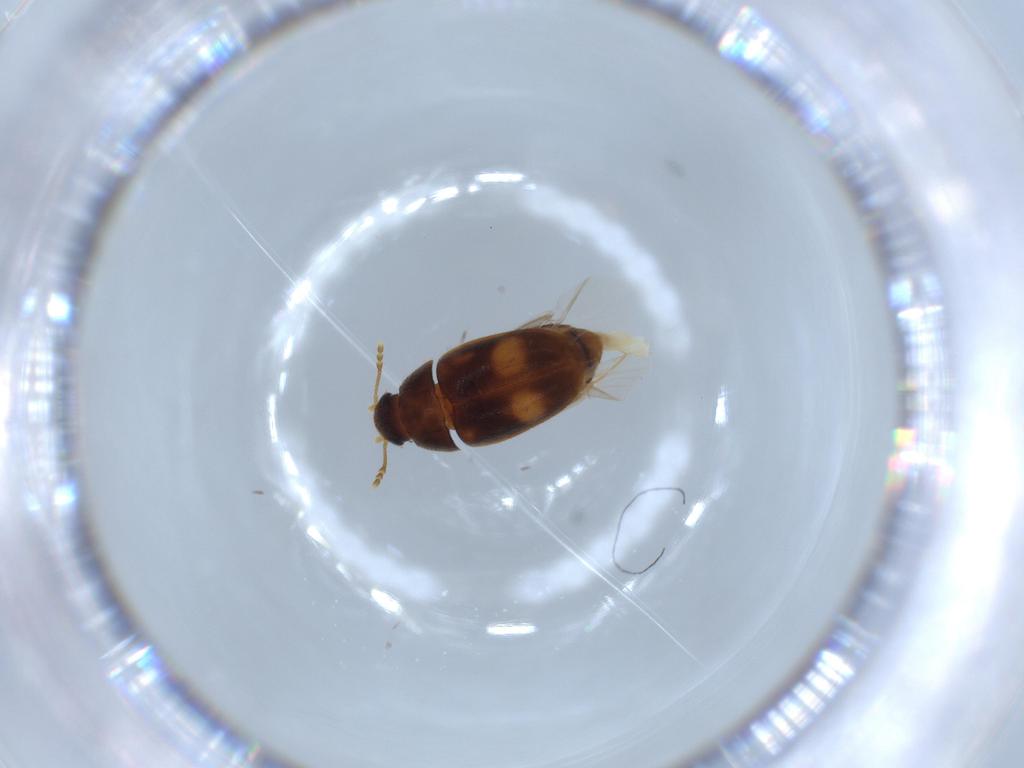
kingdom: Animalia
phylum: Arthropoda
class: Insecta
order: Coleoptera
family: Mycetophagidae
